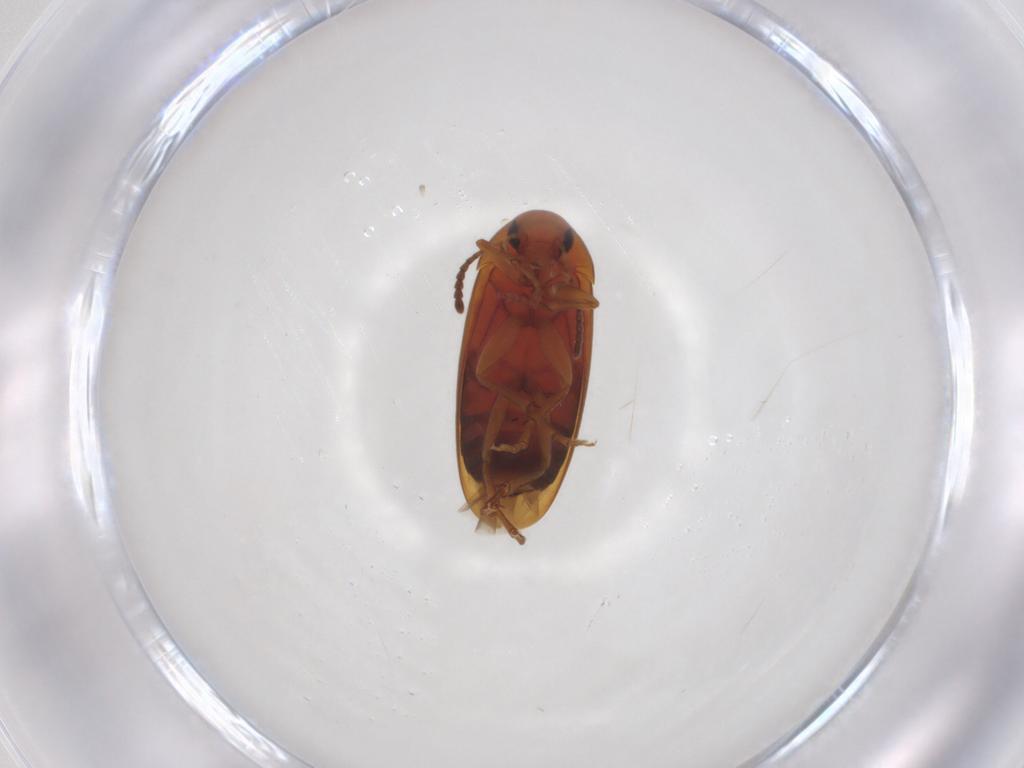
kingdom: Animalia
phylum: Arthropoda
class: Insecta
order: Coleoptera
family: Scraptiidae
